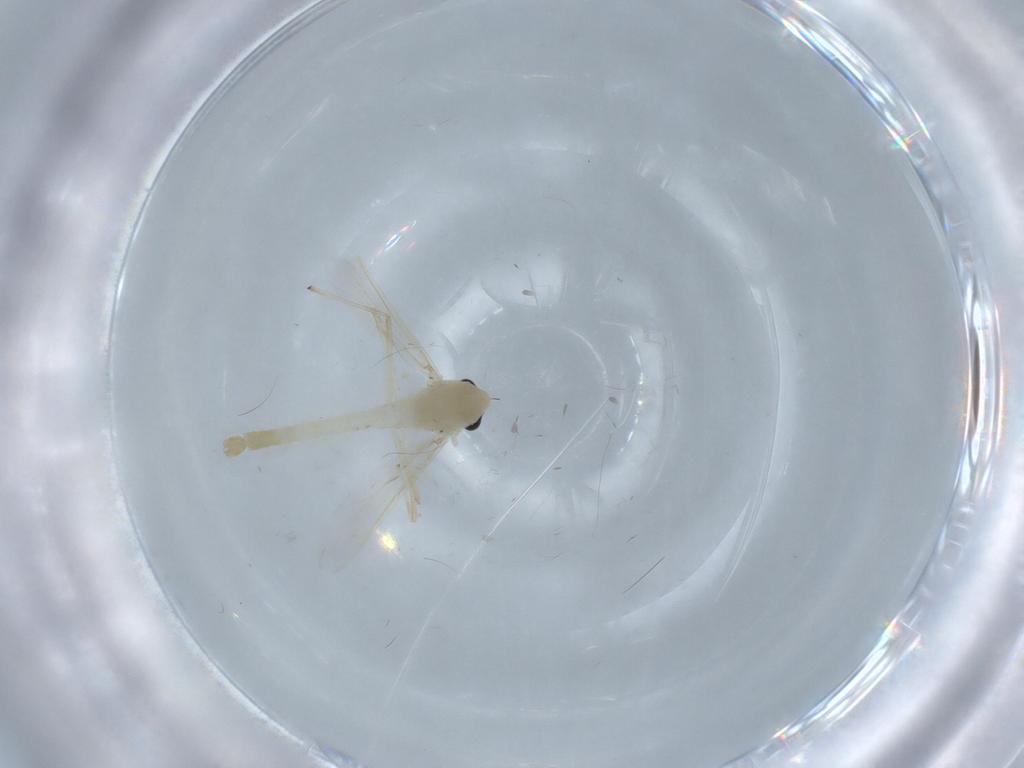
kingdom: Animalia
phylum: Arthropoda
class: Insecta
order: Diptera
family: Chironomidae
